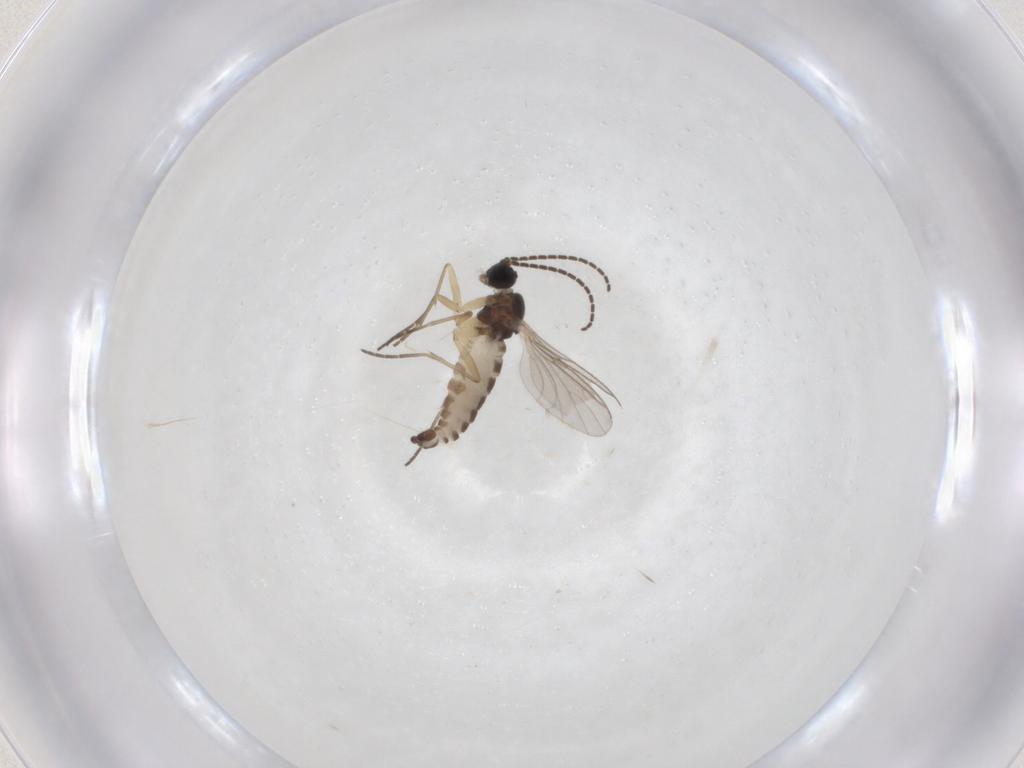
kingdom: Animalia
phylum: Arthropoda
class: Insecta
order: Diptera
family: Sciaridae
